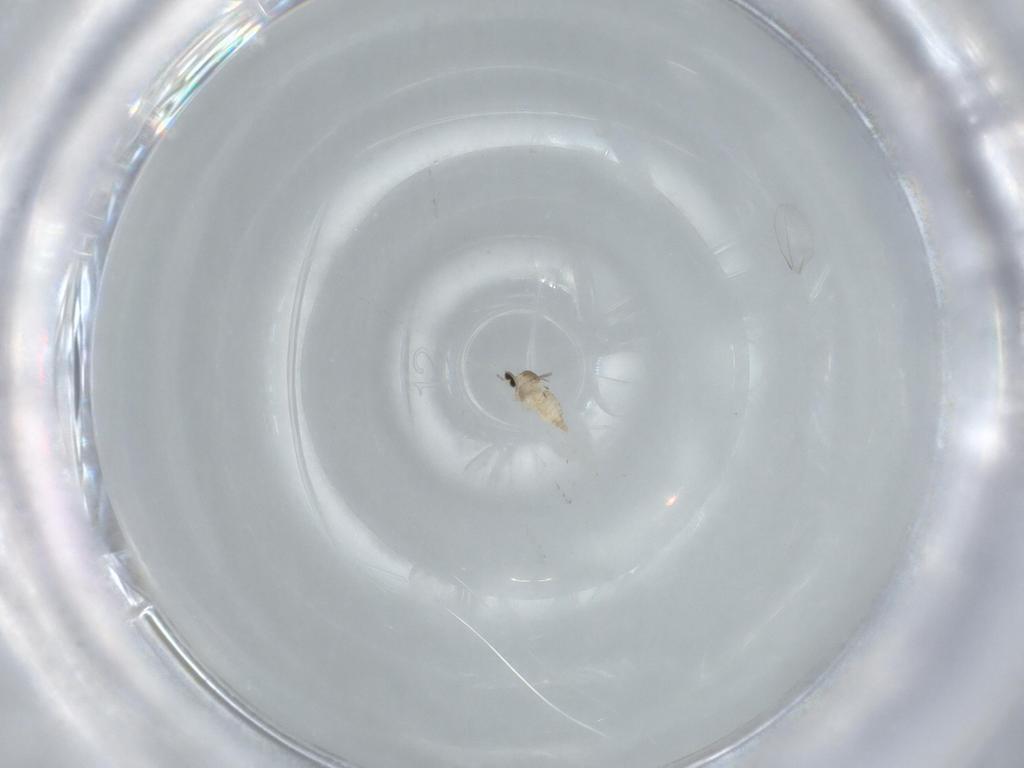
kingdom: Animalia
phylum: Arthropoda
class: Insecta
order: Diptera
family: Cecidomyiidae
